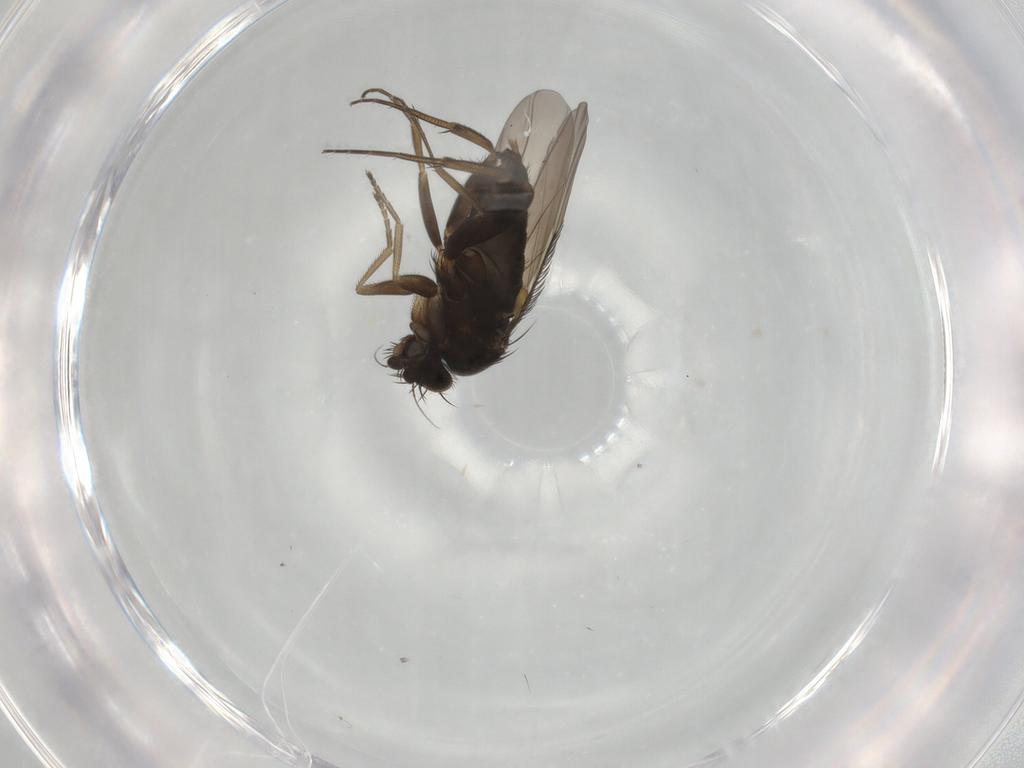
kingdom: Animalia
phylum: Arthropoda
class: Insecta
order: Diptera
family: Phoridae
